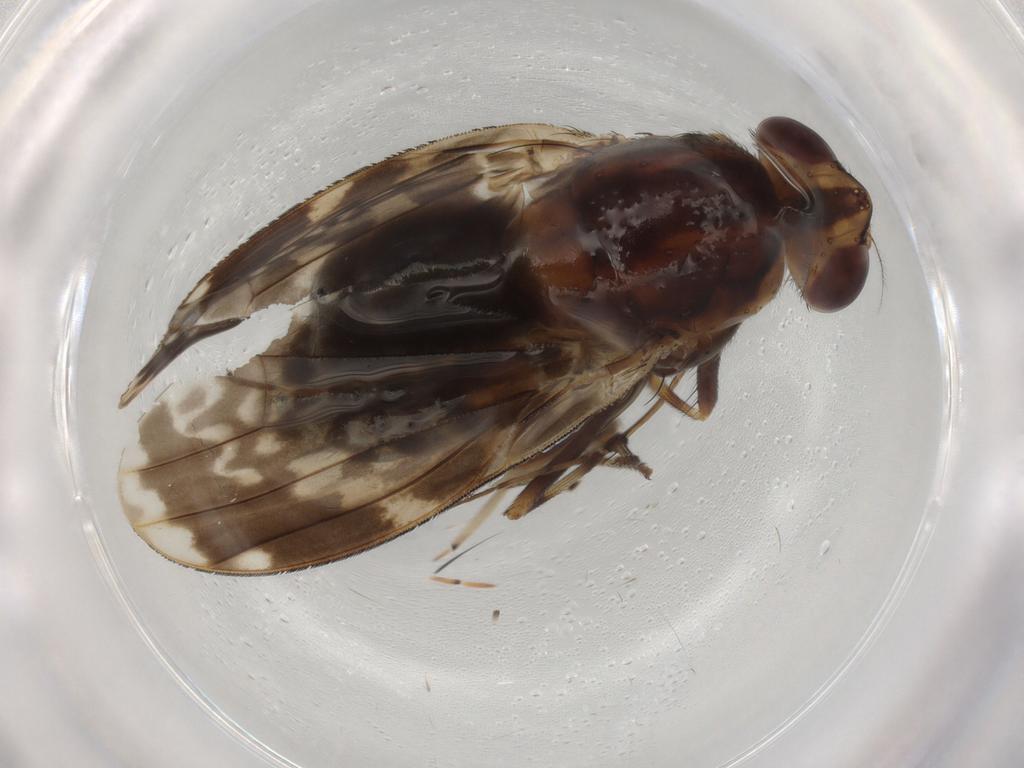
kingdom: Animalia
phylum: Arthropoda
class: Insecta
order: Diptera
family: Chironomidae
